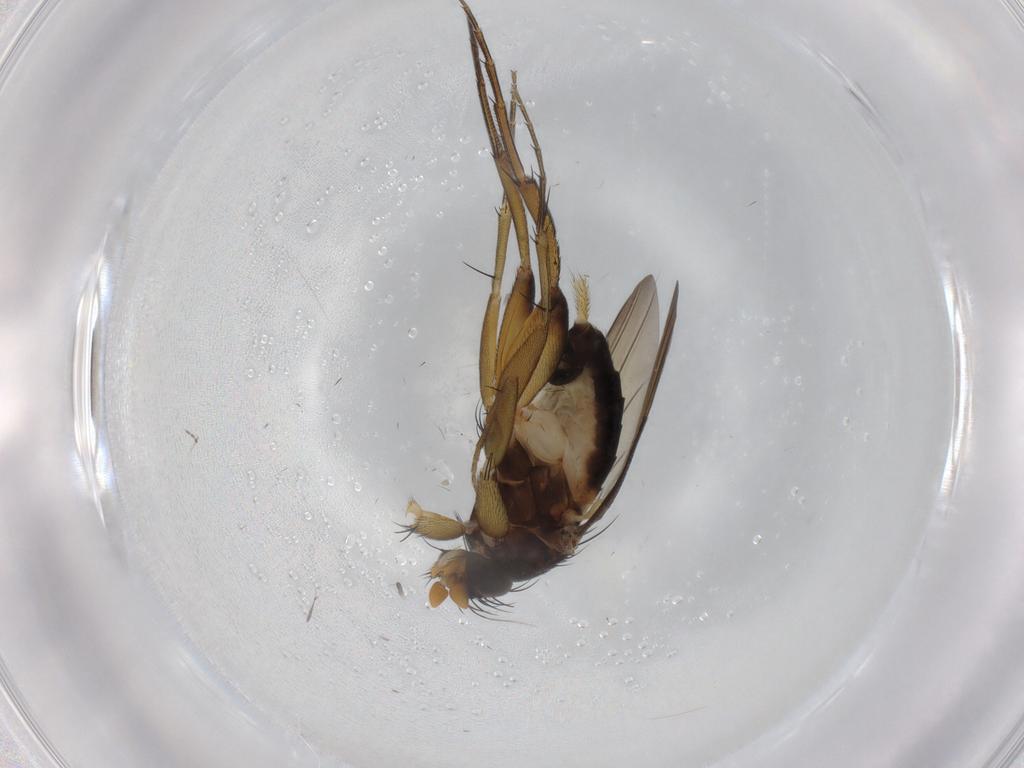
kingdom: Animalia
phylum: Arthropoda
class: Insecta
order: Diptera
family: Phoridae
